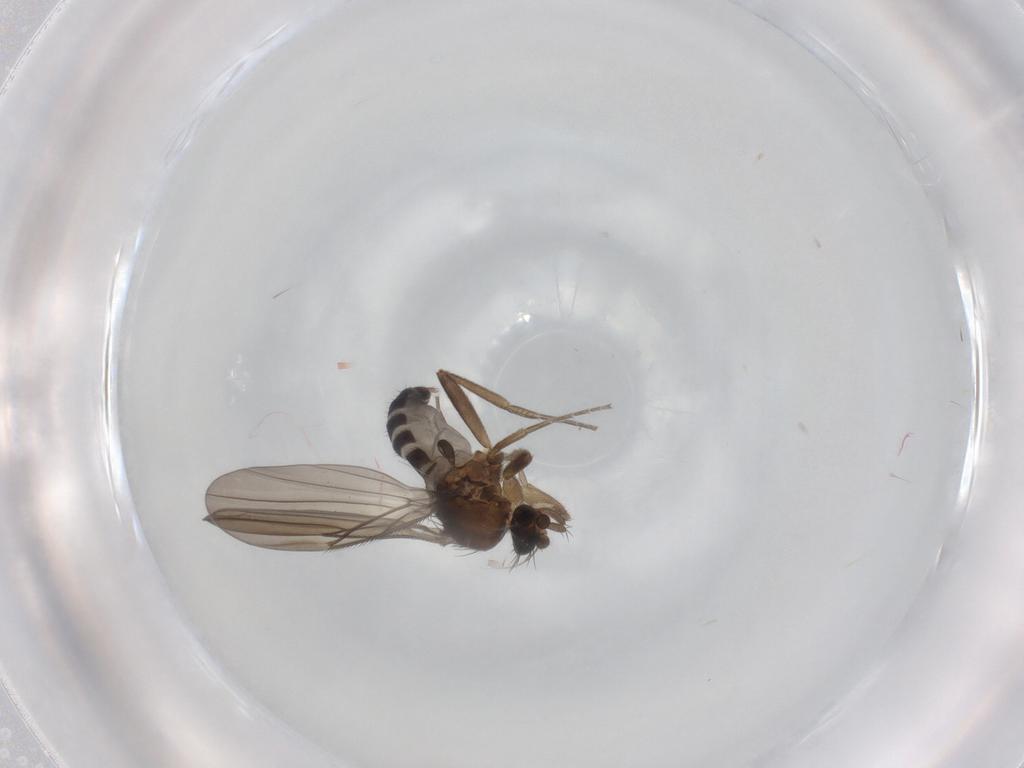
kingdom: Animalia
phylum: Arthropoda
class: Insecta
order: Diptera
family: Phoridae
